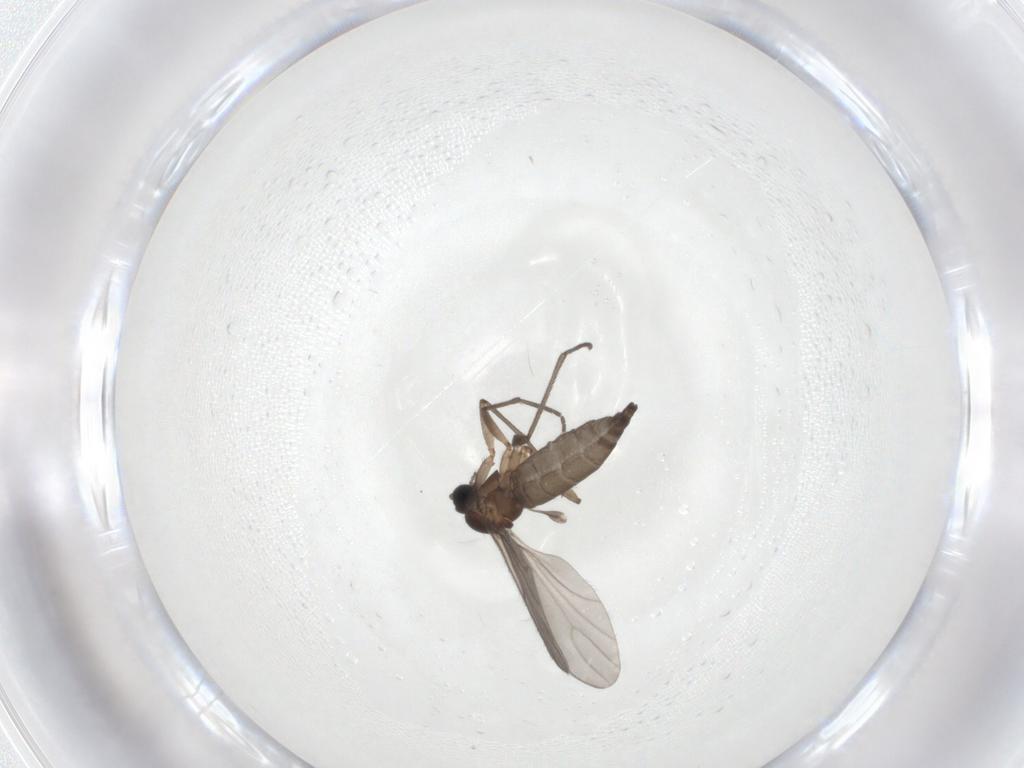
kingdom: Animalia
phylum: Arthropoda
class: Insecta
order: Diptera
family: Sciaridae
